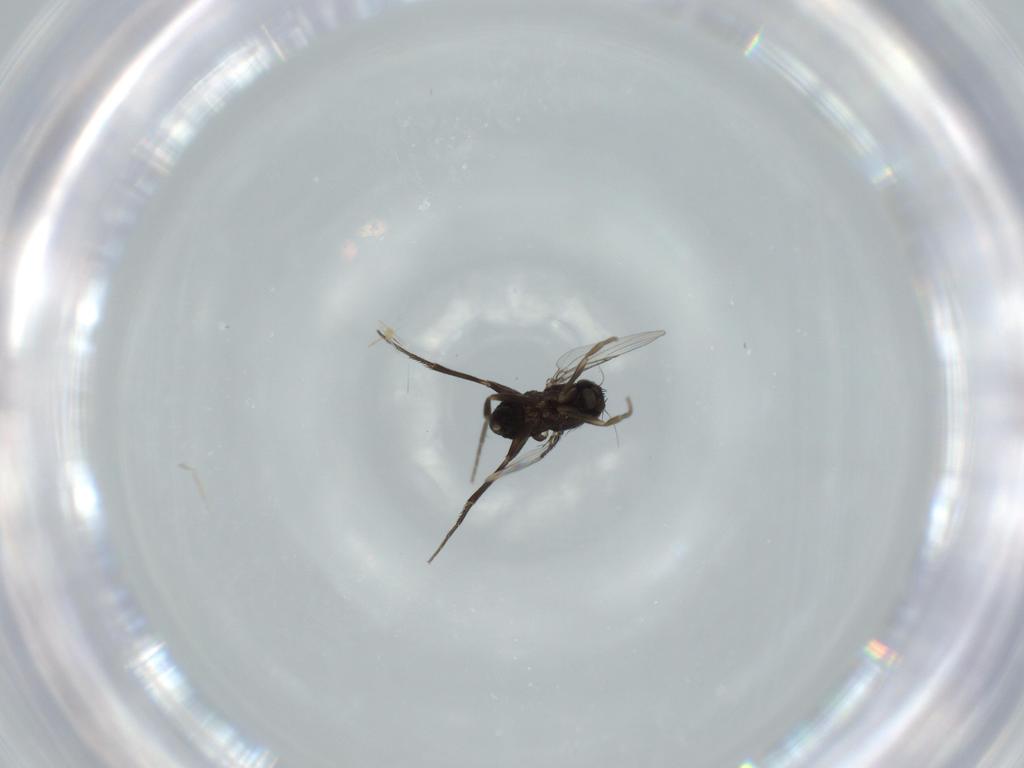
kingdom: Animalia
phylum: Arthropoda
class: Insecta
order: Diptera
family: Phoridae
